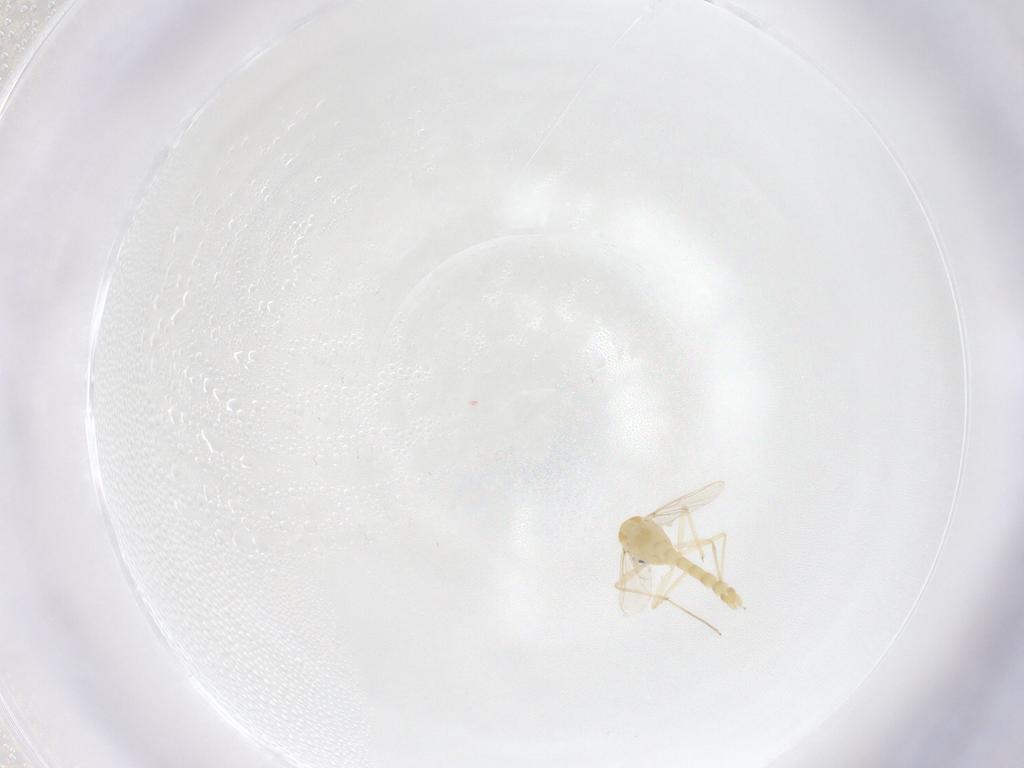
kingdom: Animalia
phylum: Arthropoda
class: Insecta
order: Diptera
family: Chironomidae
